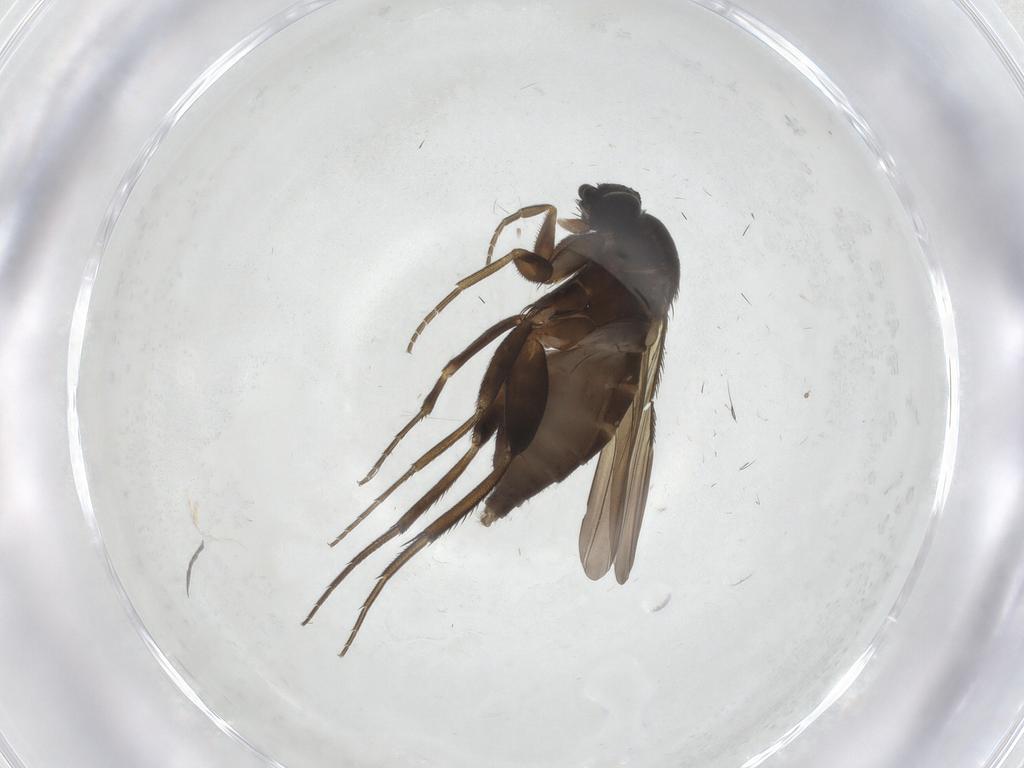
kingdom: Animalia
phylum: Arthropoda
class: Insecta
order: Diptera
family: Phoridae
